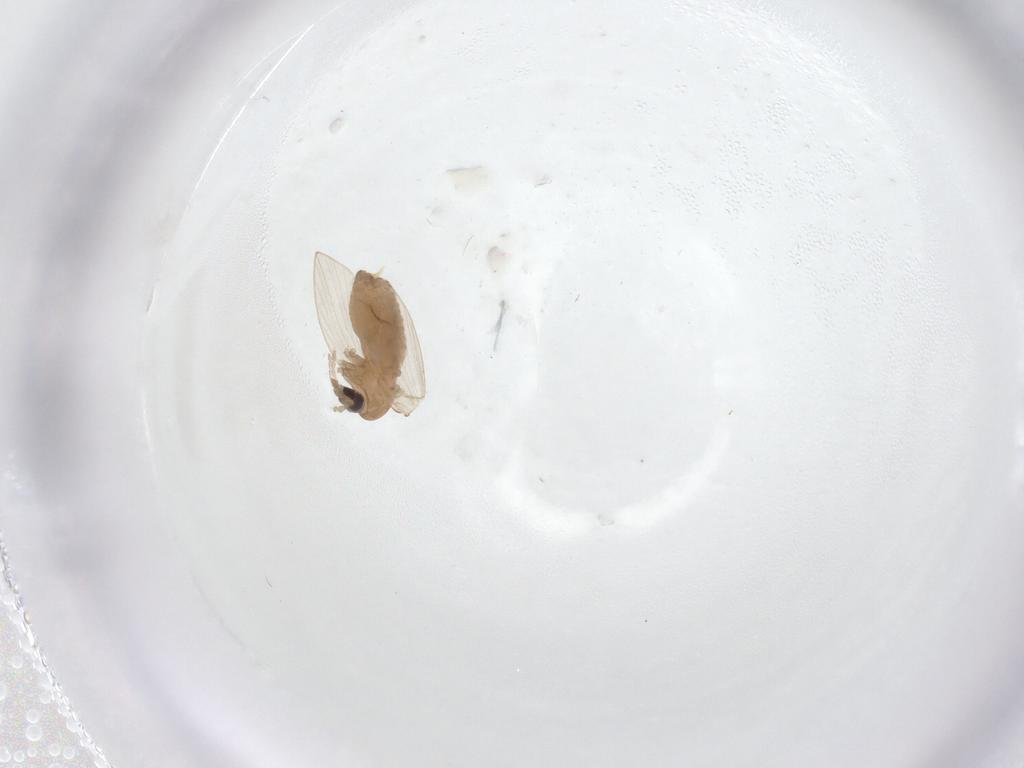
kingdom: Animalia
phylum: Arthropoda
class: Insecta
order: Diptera
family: Psychodidae
